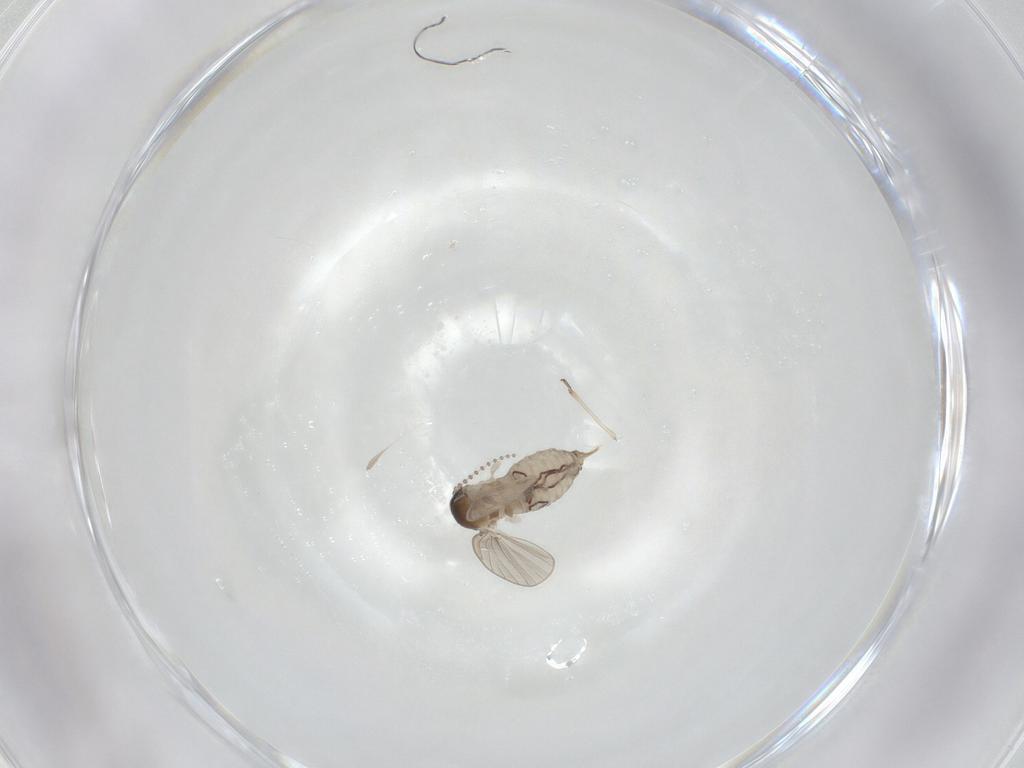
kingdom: Animalia
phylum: Arthropoda
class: Insecta
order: Diptera
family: Psychodidae
